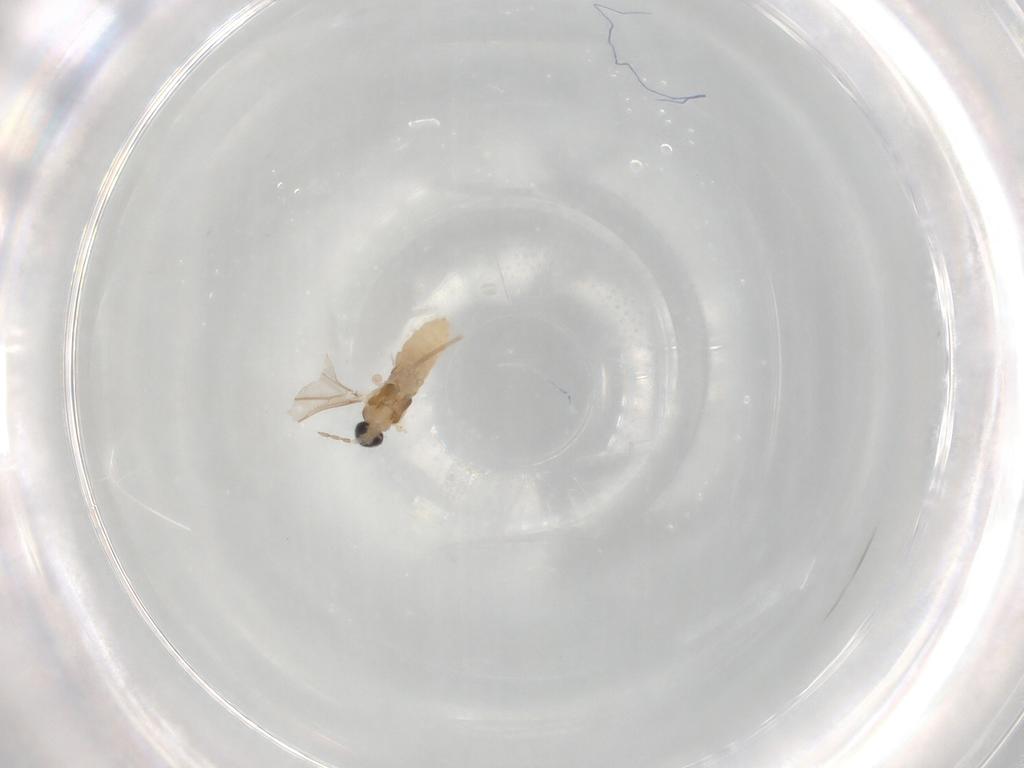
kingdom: Animalia
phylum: Arthropoda
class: Insecta
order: Diptera
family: Cecidomyiidae
